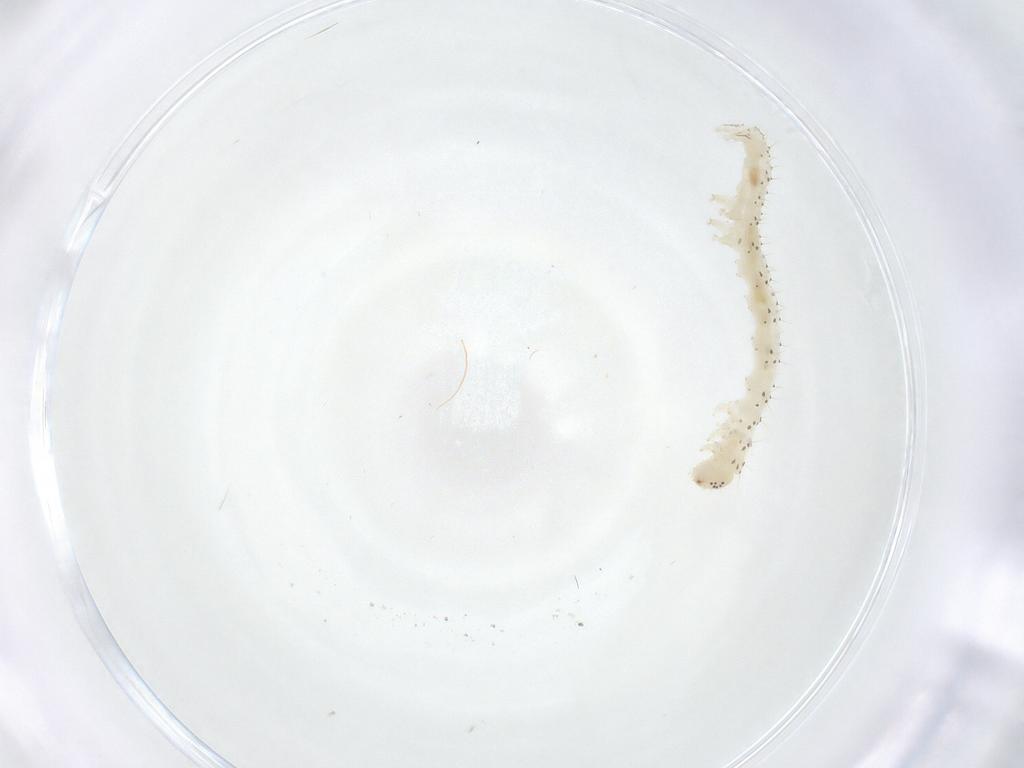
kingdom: Animalia
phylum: Arthropoda
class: Insecta
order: Lepidoptera
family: Erebidae
